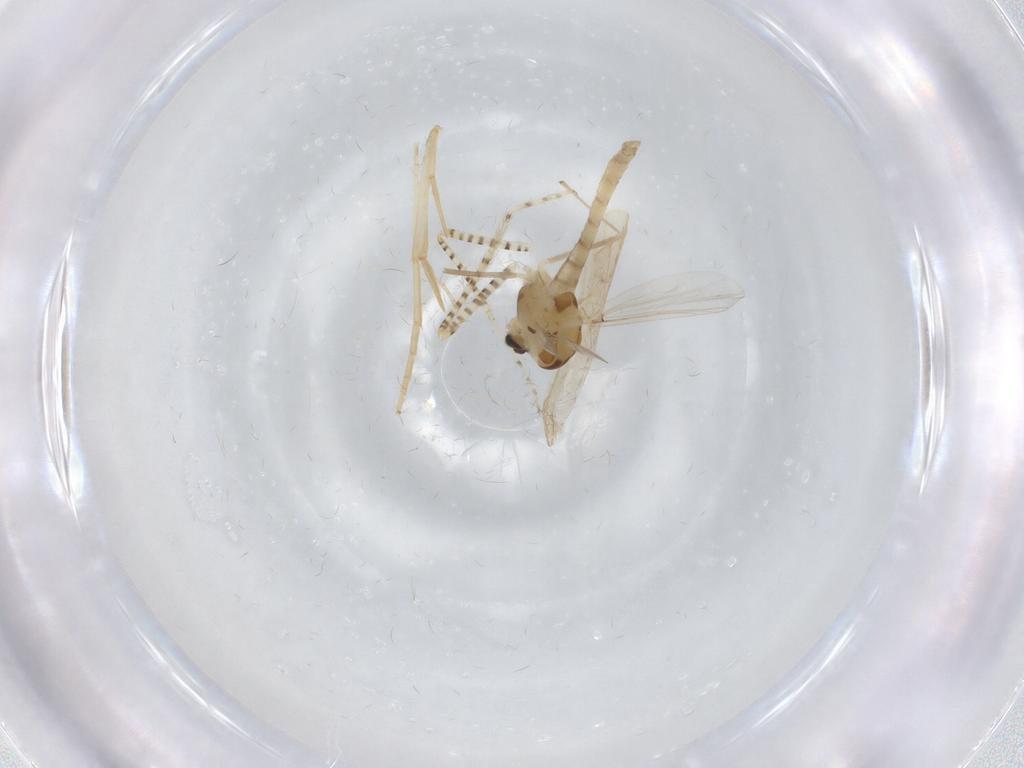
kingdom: Animalia
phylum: Arthropoda
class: Insecta
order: Diptera
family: Chironomidae
